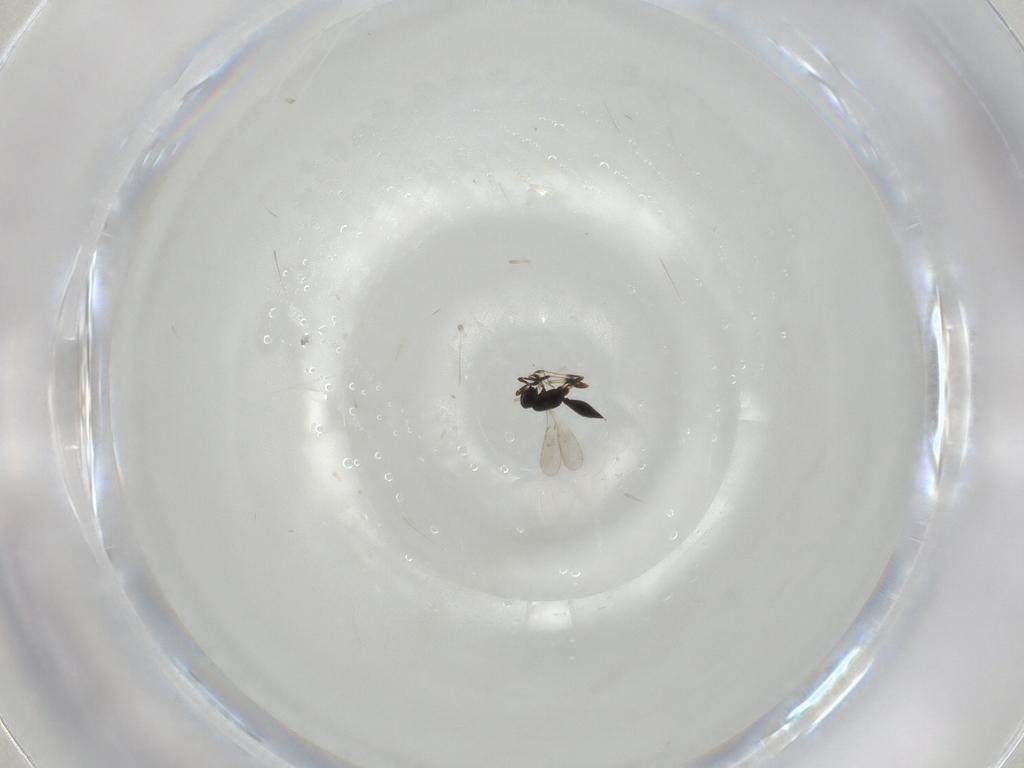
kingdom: Animalia
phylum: Arthropoda
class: Insecta
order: Hymenoptera
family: Scelionidae
